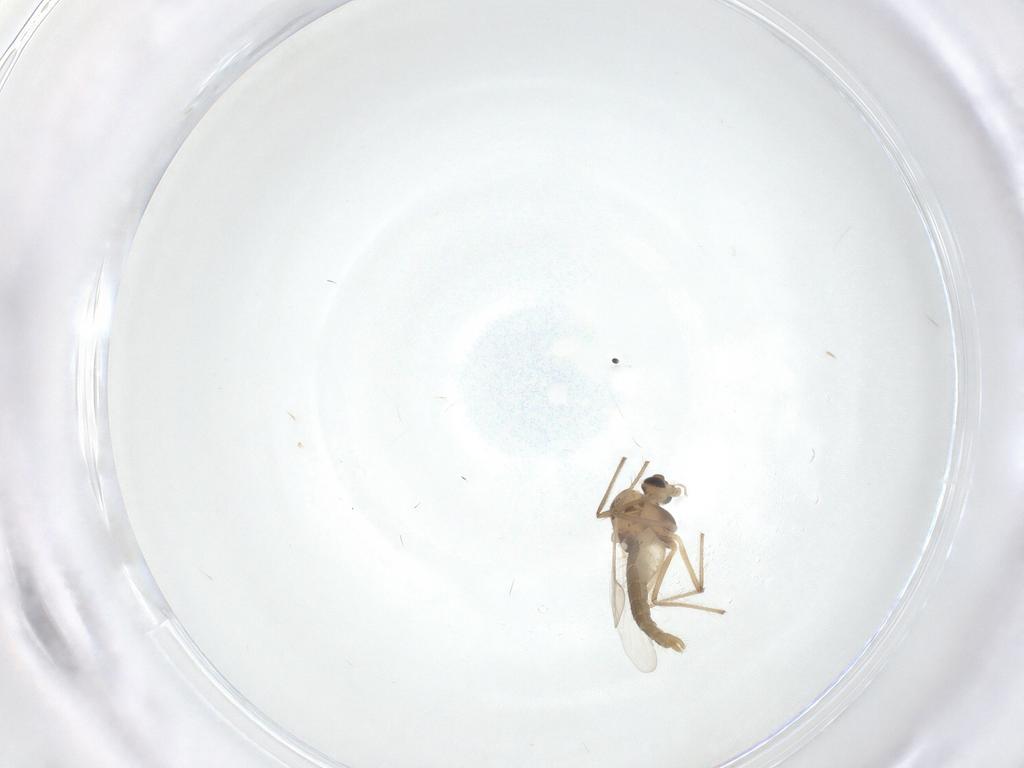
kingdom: Animalia
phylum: Arthropoda
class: Insecta
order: Diptera
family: Chironomidae
